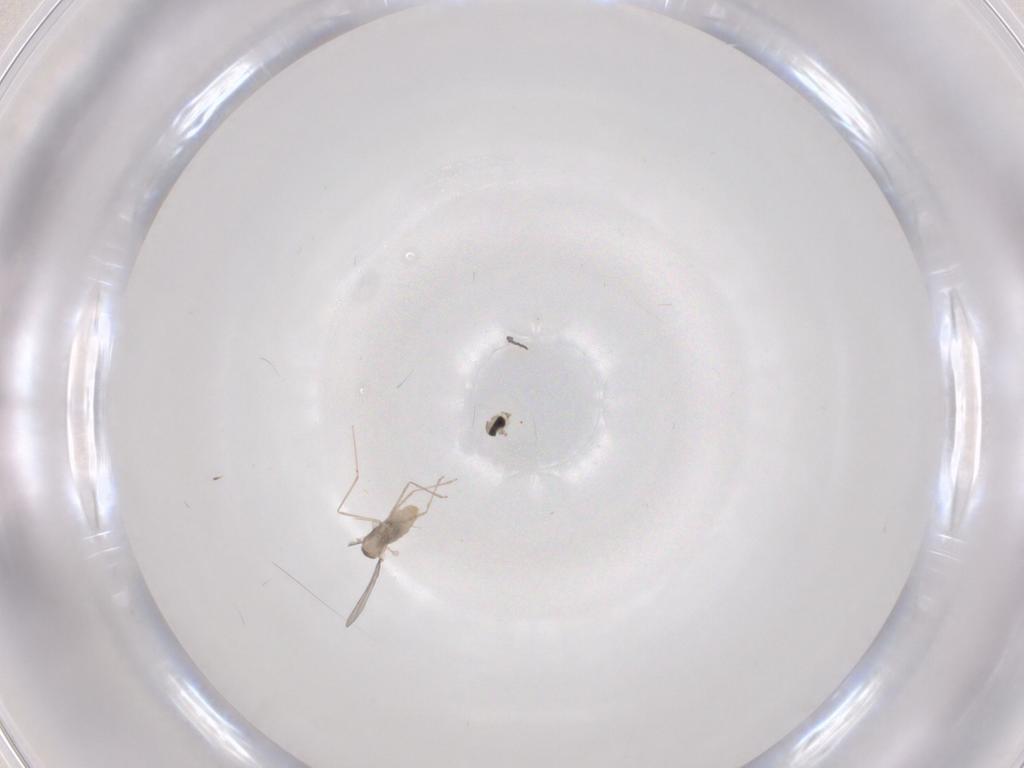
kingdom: Animalia
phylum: Arthropoda
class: Insecta
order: Diptera
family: Cecidomyiidae
